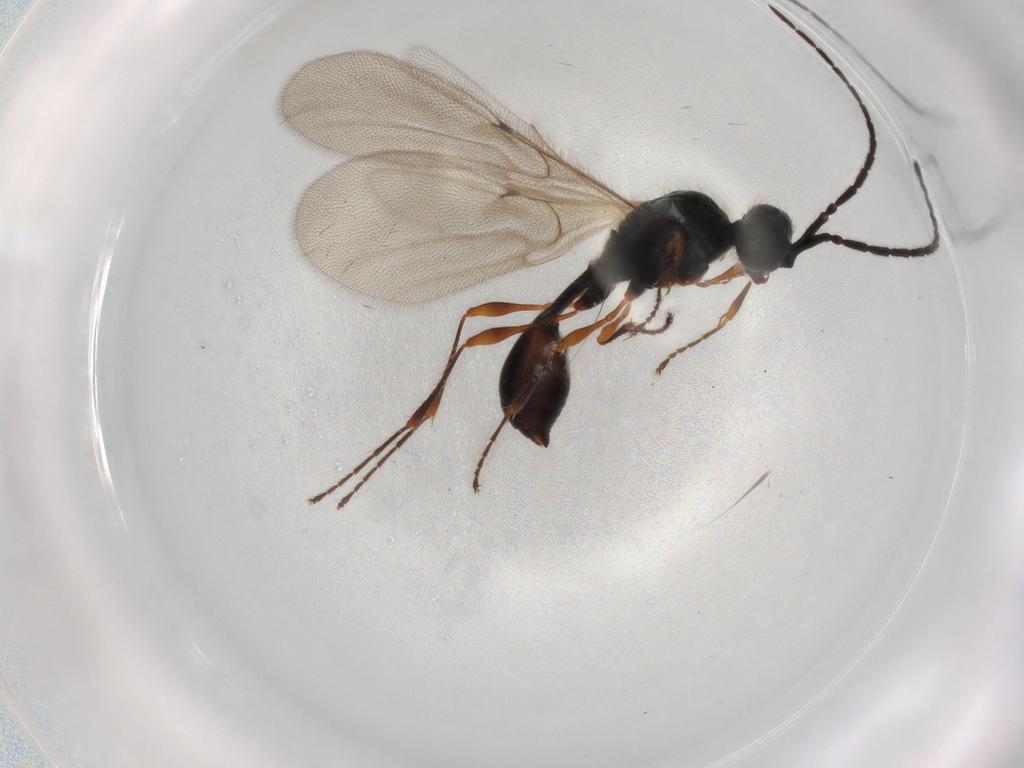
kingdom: Animalia
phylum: Arthropoda
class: Insecta
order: Hymenoptera
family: Diapriidae
